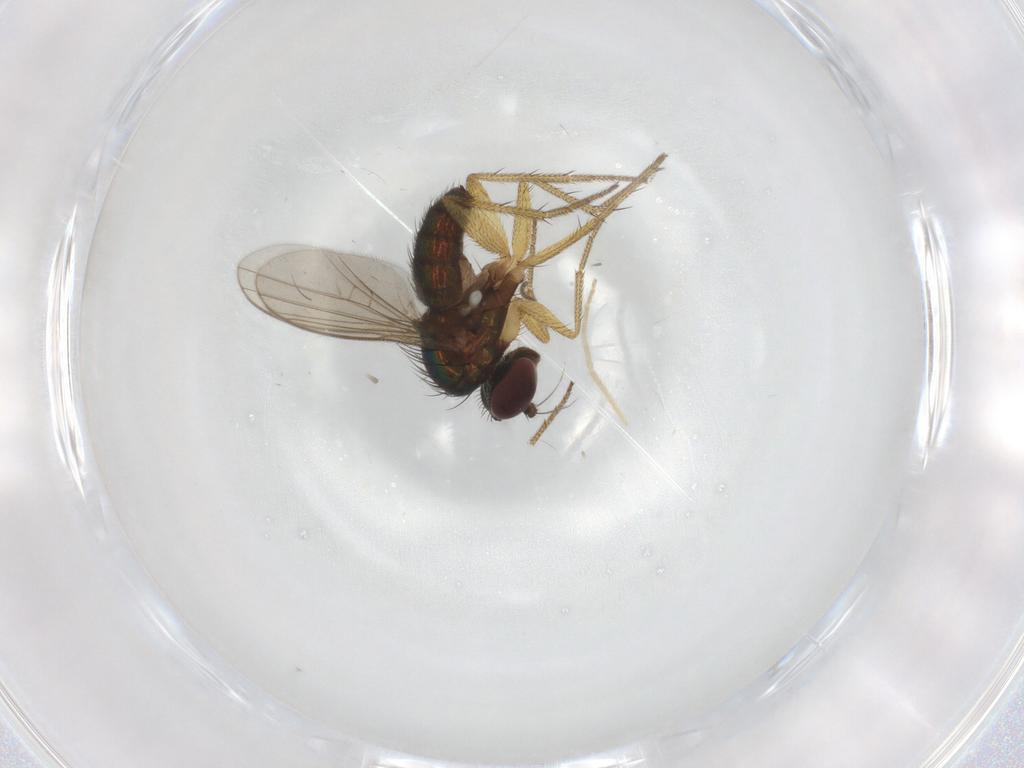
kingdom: Animalia
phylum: Arthropoda
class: Insecta
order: Diptera
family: Dolichopodidae
